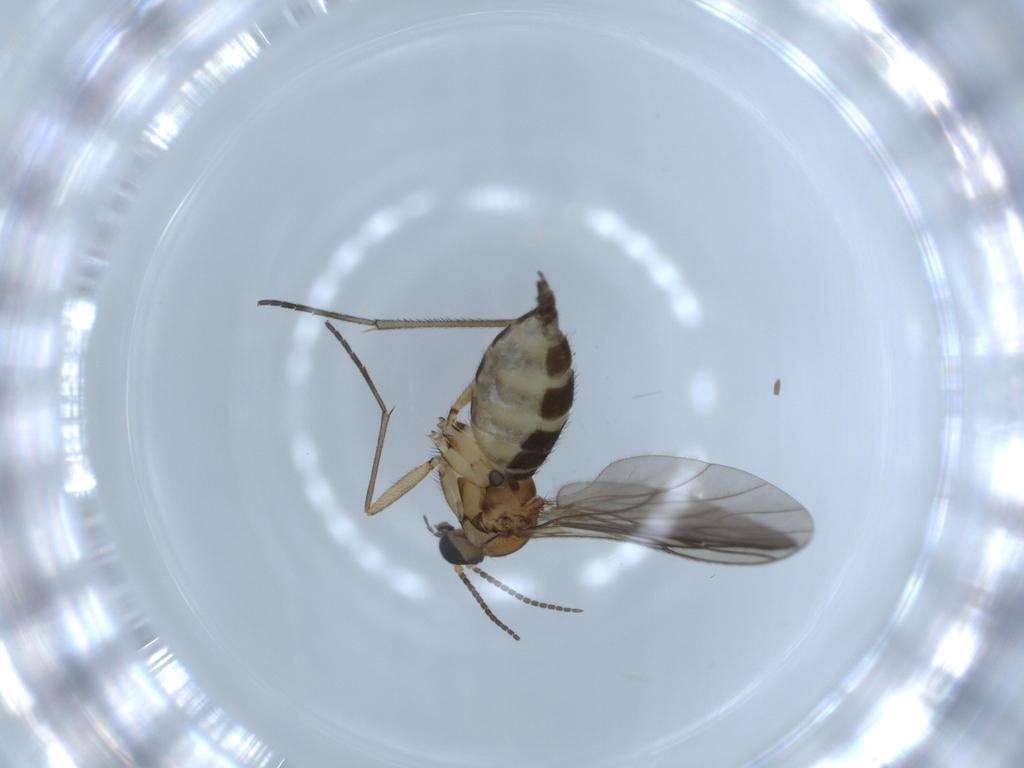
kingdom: Animalia
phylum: Arthropoda
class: Insecta
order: Diptera
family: Sciaridae
